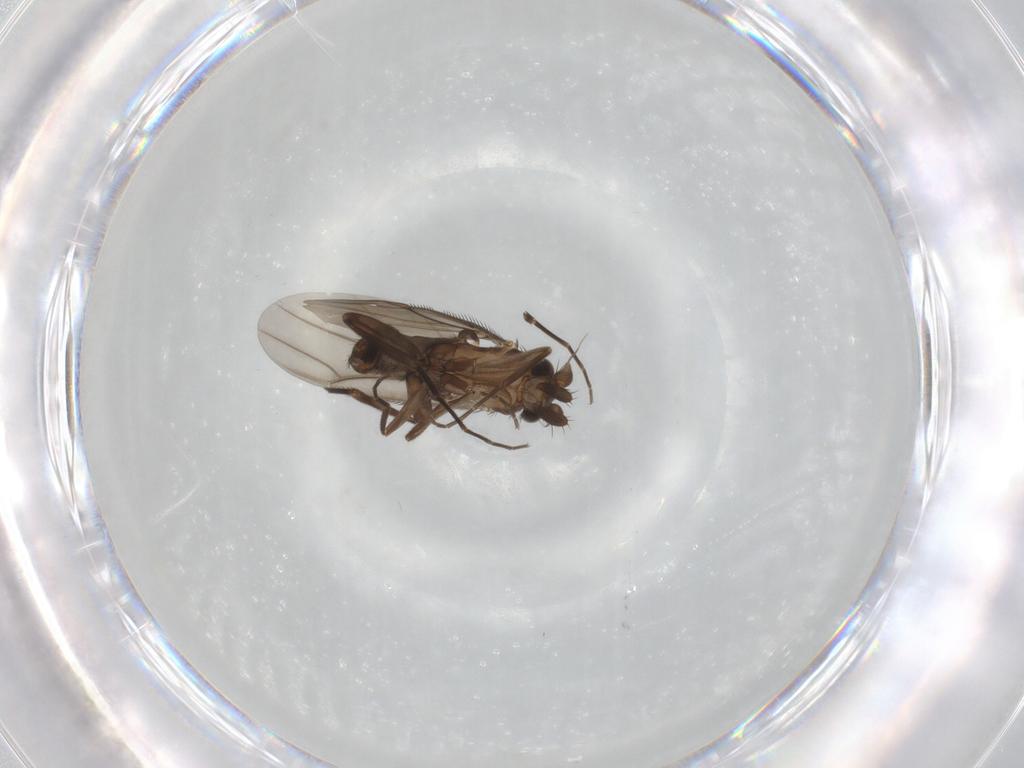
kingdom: Animalia
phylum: Arthropoda
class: Insecta
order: Diptera
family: Phoridae
